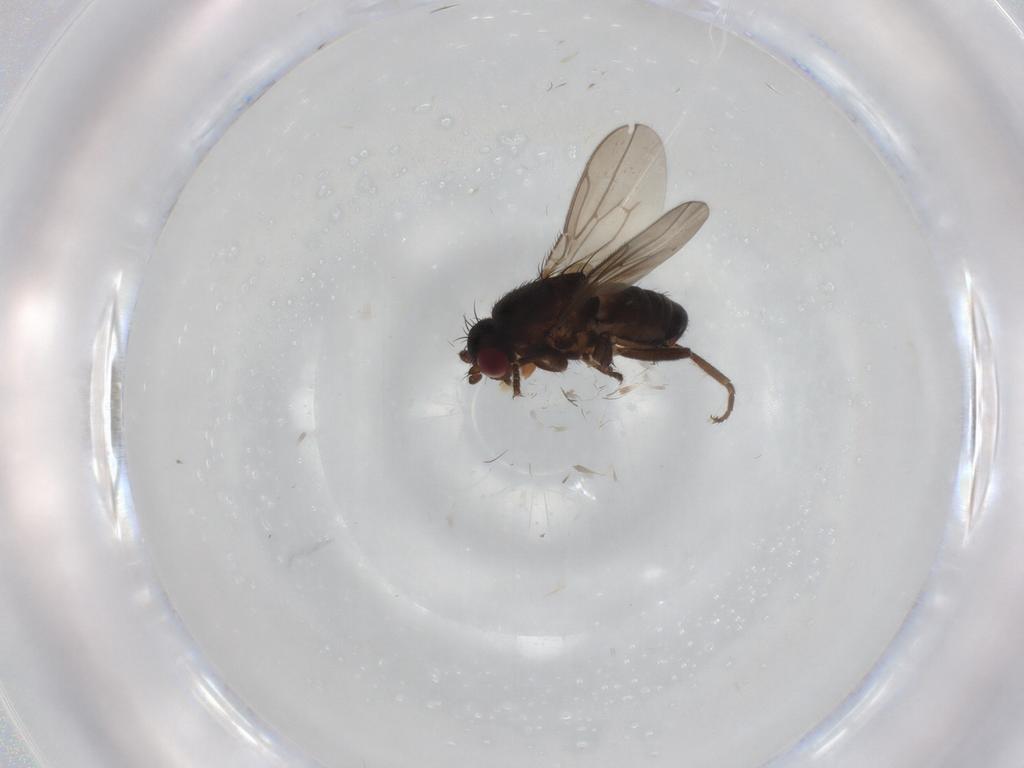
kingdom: Animalia
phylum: Arthropoda
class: Insecta
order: Diptera
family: Sphaeroceridae
